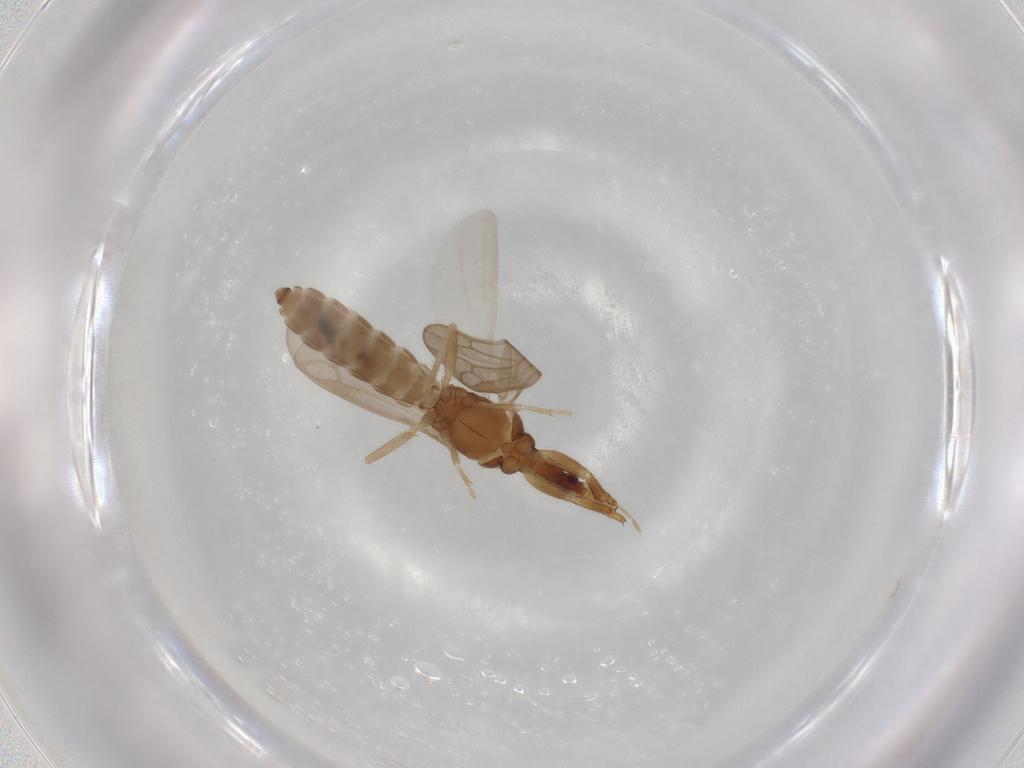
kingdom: Animalia
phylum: Arthropoda
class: Insecta
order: Hemiptera
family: Enicocephalidae
